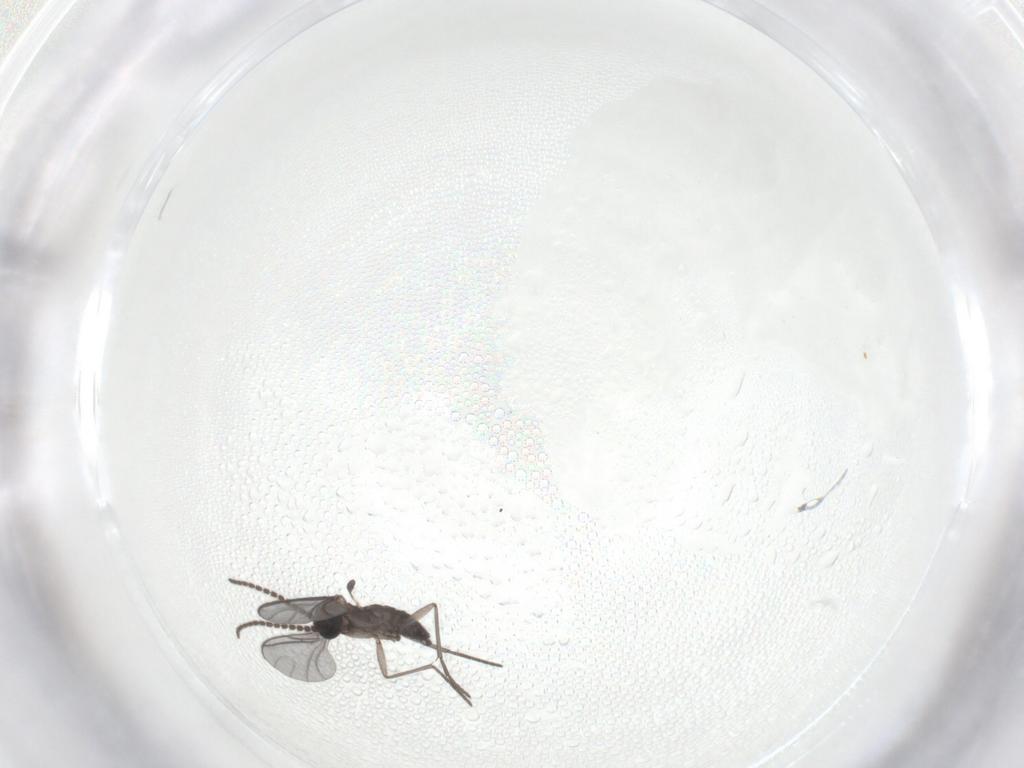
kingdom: Animalia
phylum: Arthropoda
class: Insecta
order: Diptera
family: Sciaridae
